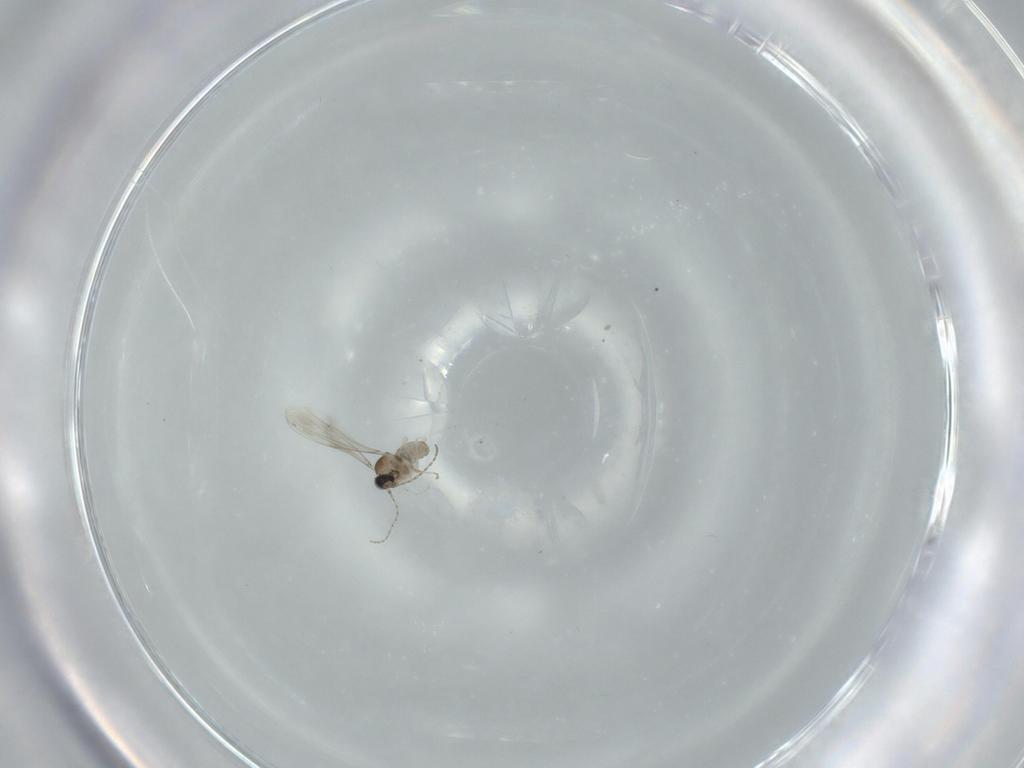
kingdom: Animalia
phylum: Arthropoda
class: Insecta
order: Diptera
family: Cecidomyiidae
